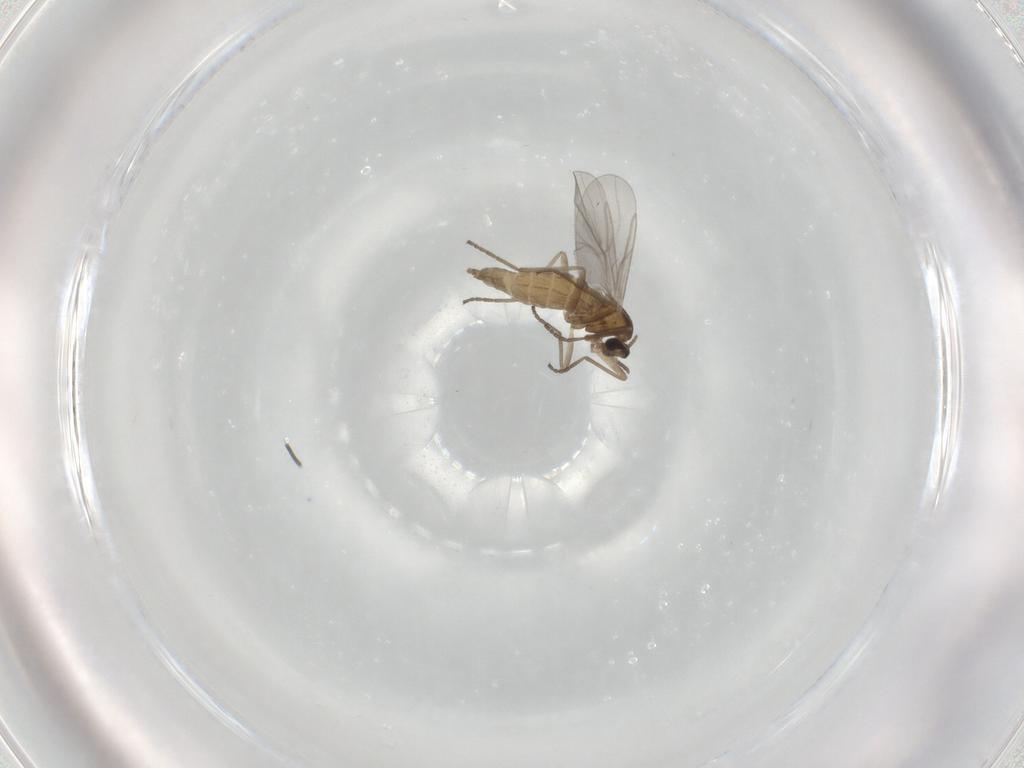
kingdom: Animalia
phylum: Arthropoda
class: Insecta
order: Diptera
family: Cecidomyiidae
